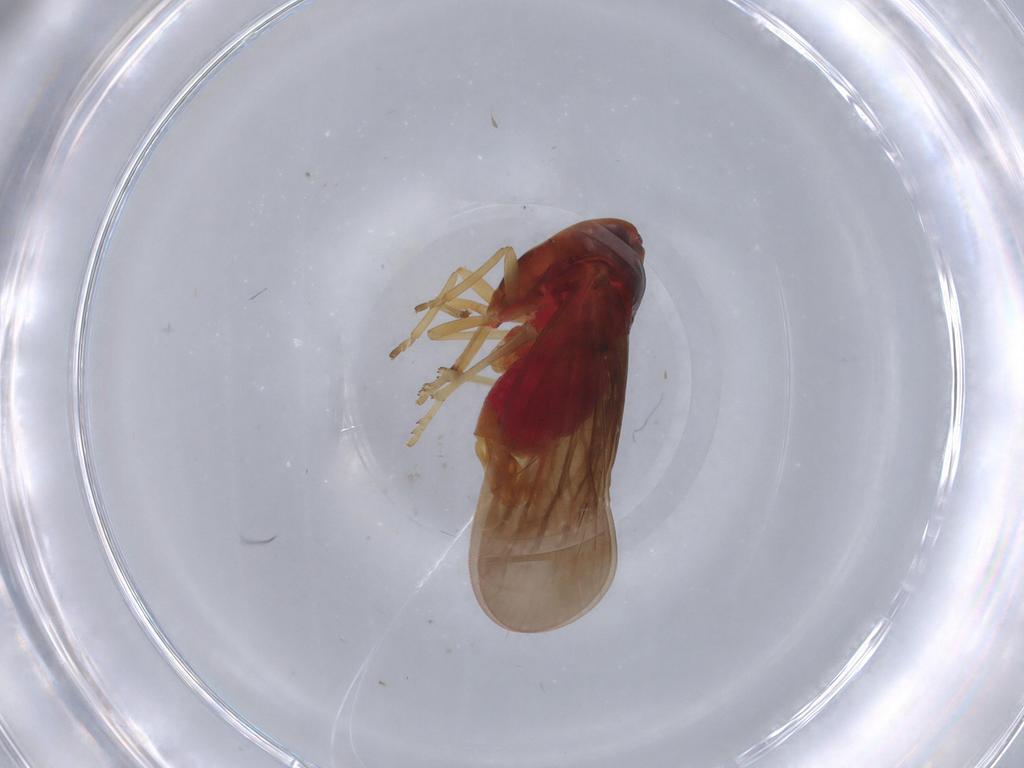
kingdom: Animalia
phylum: Arthropoda
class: Insecta
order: Hemiptera
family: Derbidae
